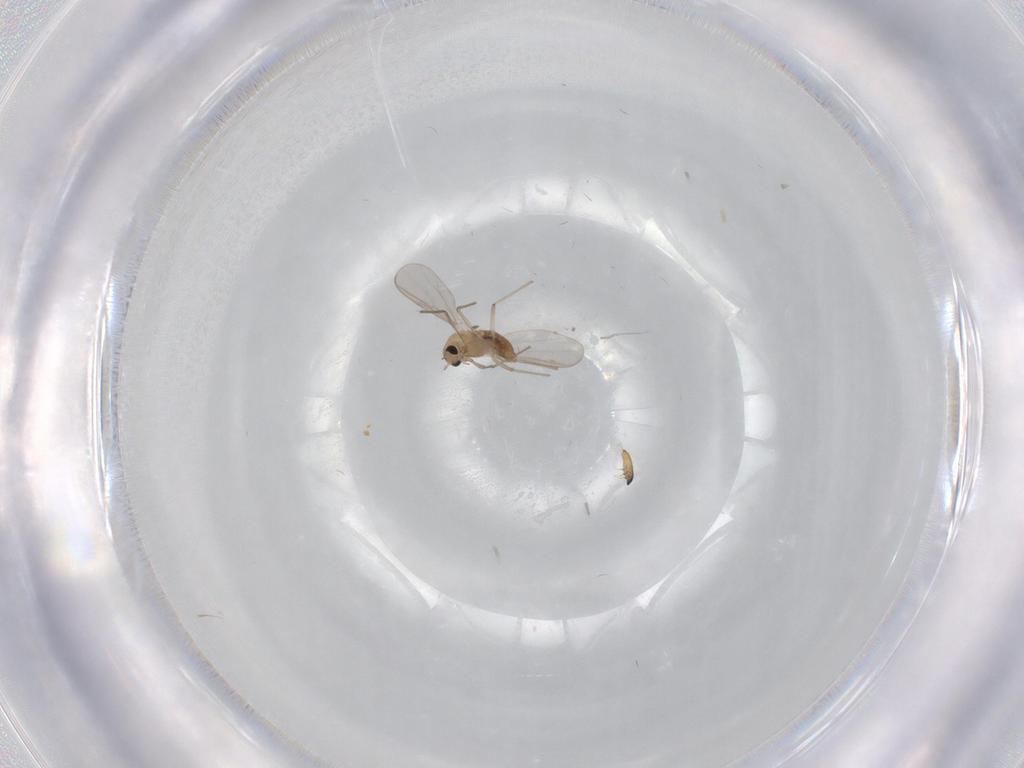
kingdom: Animalia
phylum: Arthropoda
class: Insecta
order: Diptera
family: Chironomidae
